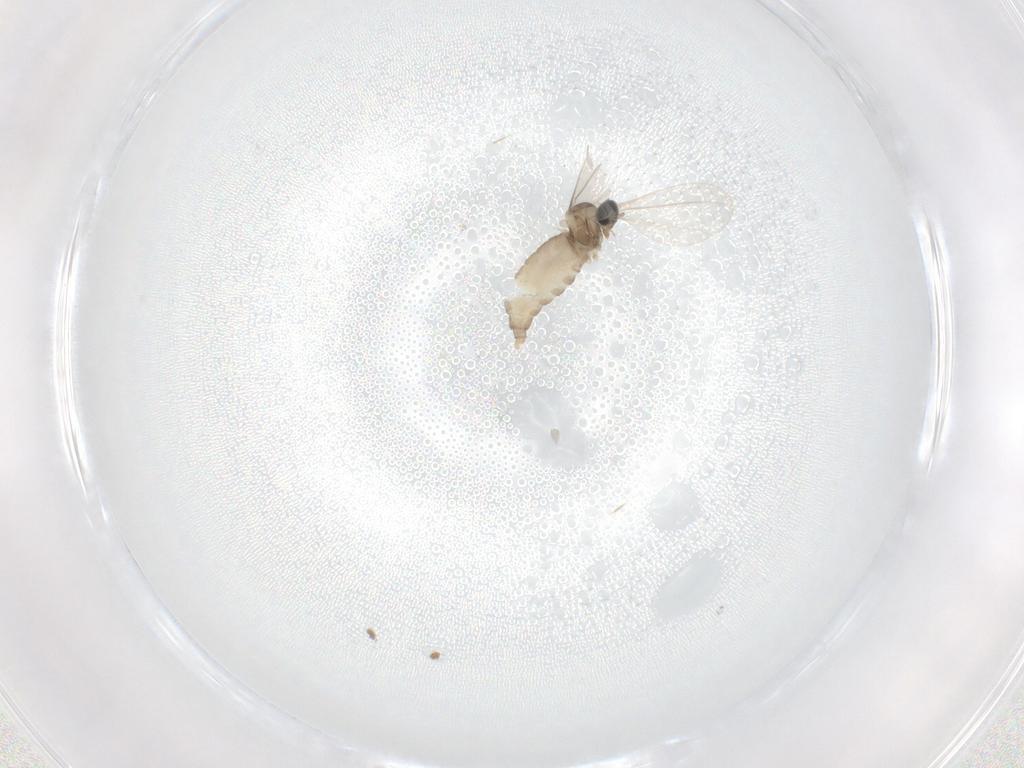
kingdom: Animalia
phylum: Arthropoda
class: Insecta
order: Diptera
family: Cecidomyiidae
